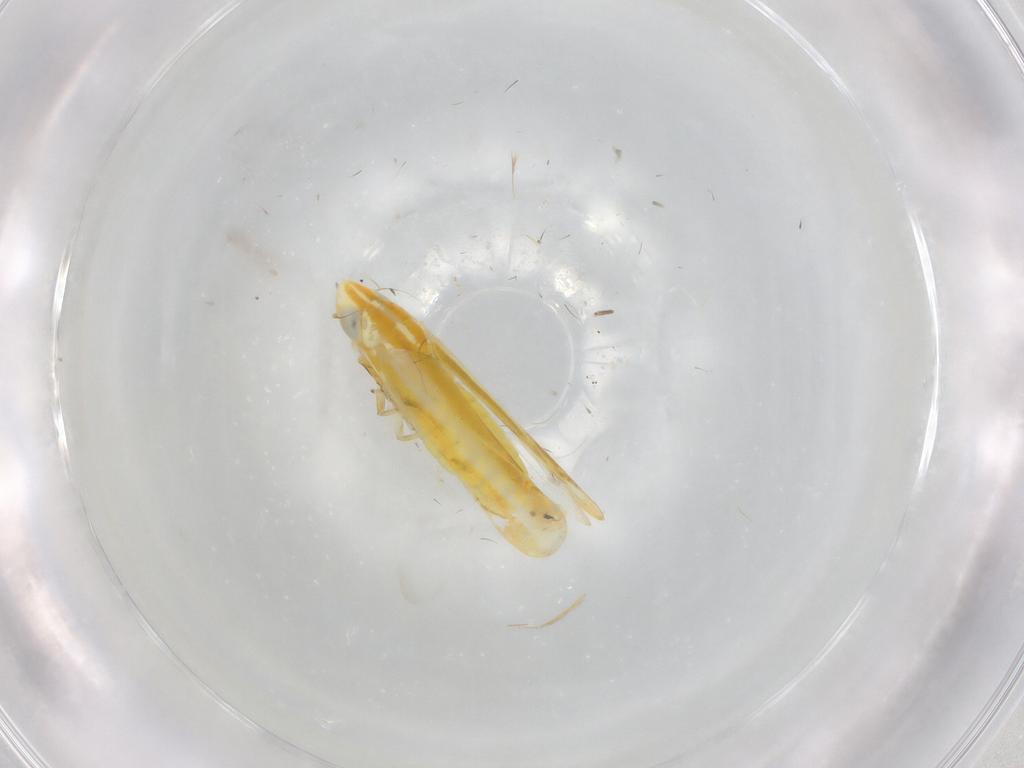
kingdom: Animalia
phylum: Arthropoda
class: Insecta
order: Hemiptera
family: Cicadellidae
